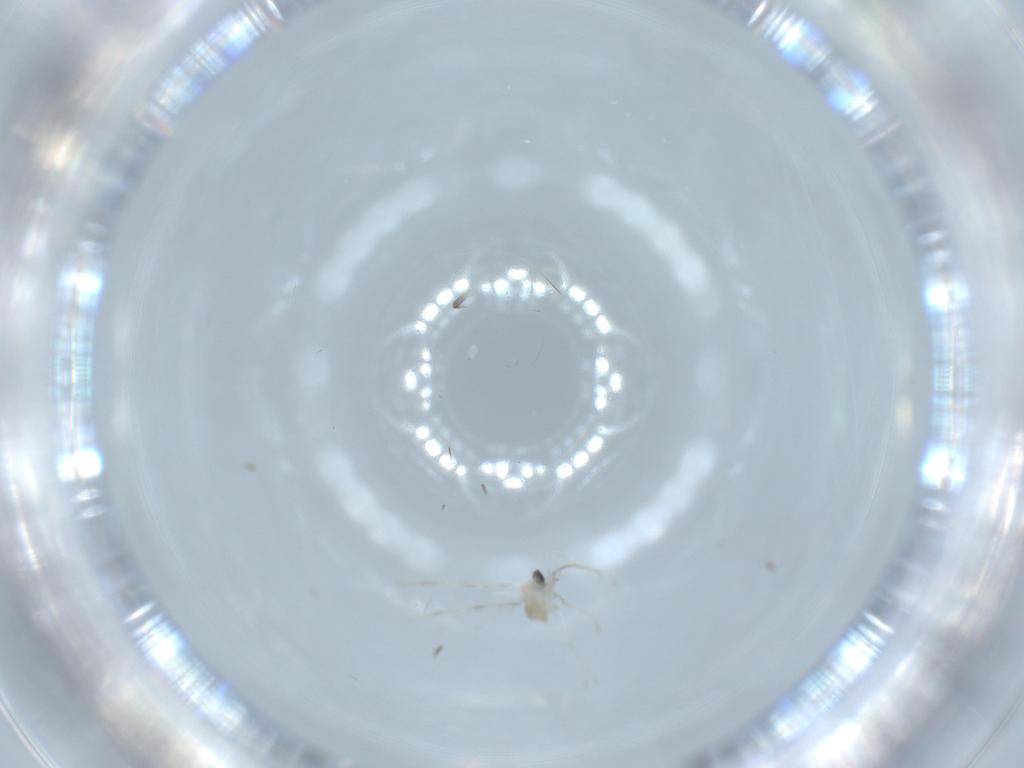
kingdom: Animalia
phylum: Arthropoda
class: Insecta
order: Diptera
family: Cecidomyiidae
